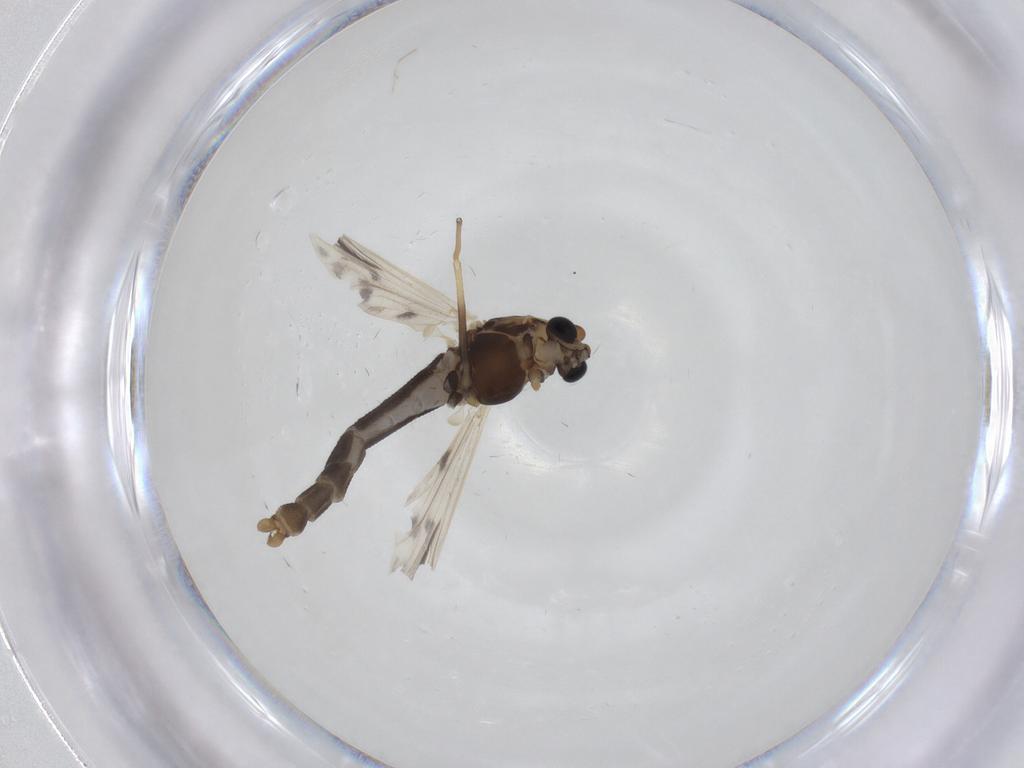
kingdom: Animalia
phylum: Arthropoda
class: Insecta
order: Diptera
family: Chironomidae
